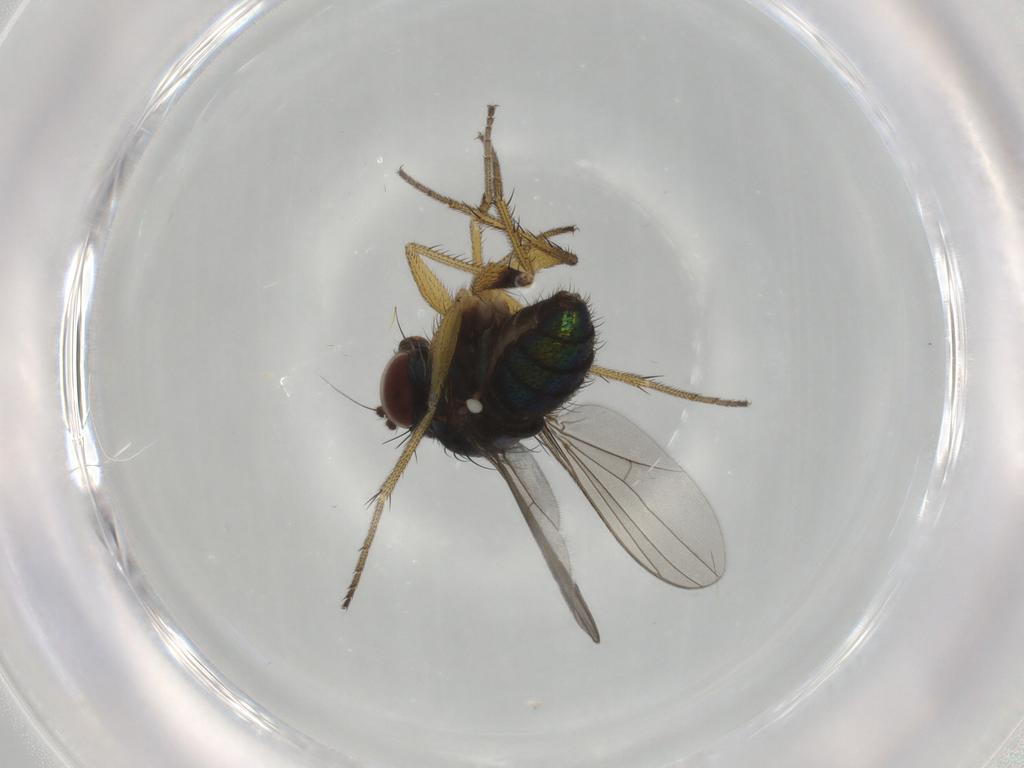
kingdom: Animalia
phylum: Arthropoda
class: Insecta
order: Diptera
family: Dolichopodidae
